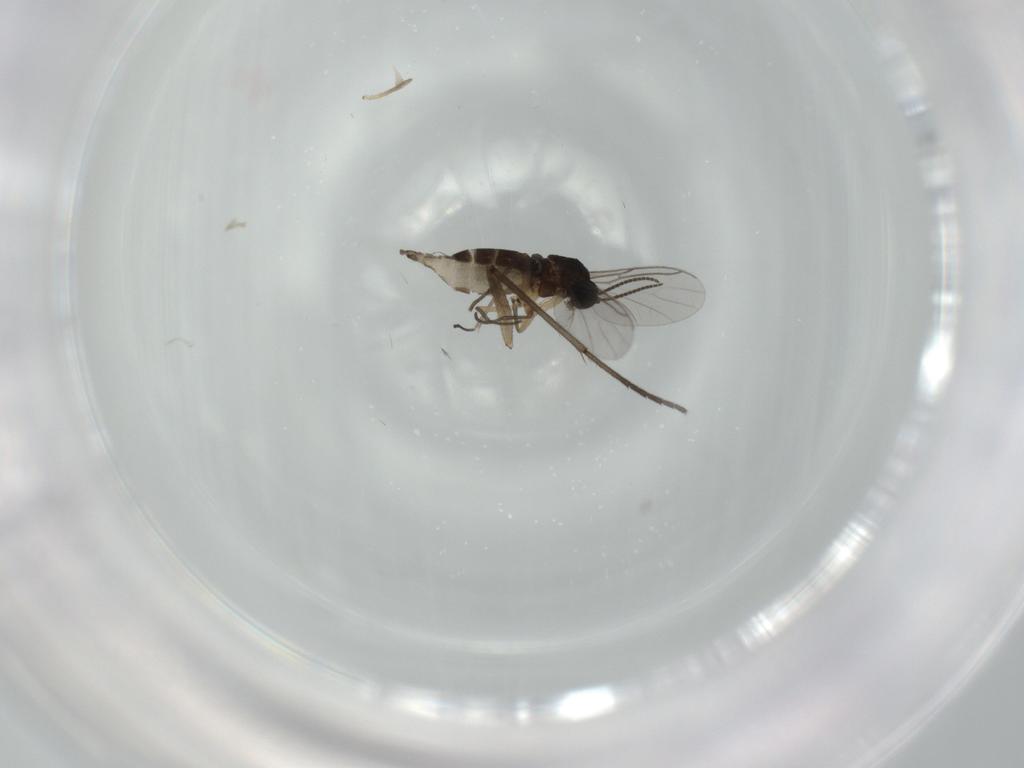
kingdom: Animalia
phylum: Arthropoda
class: Insecta
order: Diptera
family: Sciaridae
